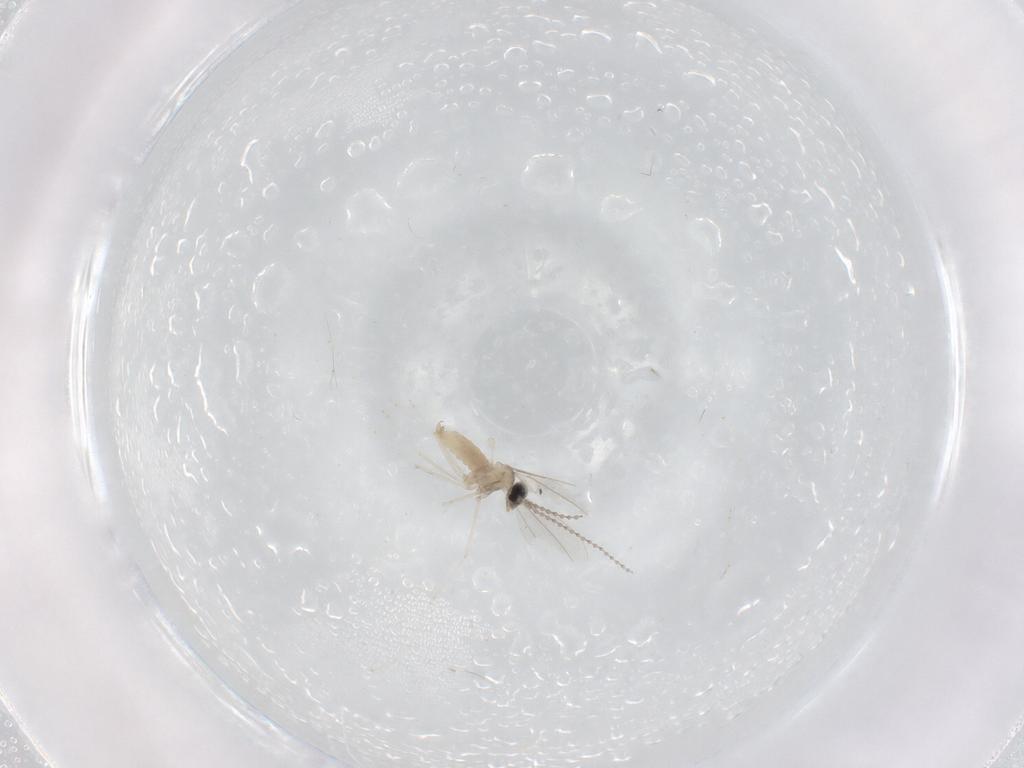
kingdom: Animalia
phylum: Arthropoda
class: Insecta
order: Diptera
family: Cecidomyiidae
